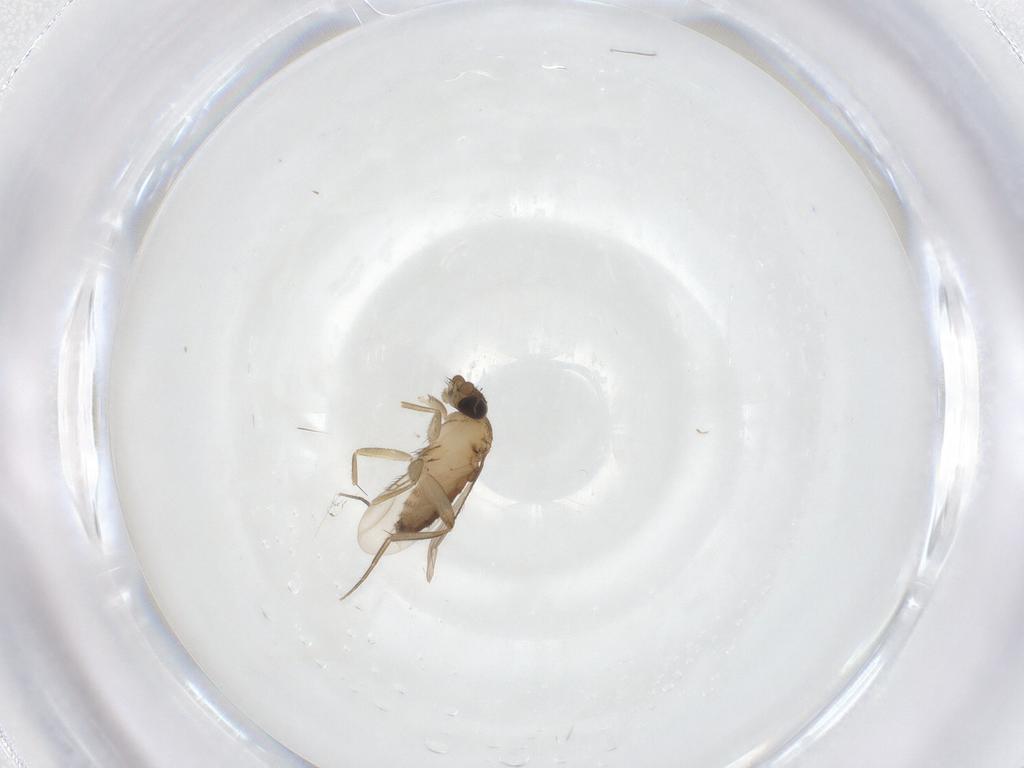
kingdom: Animalia
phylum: Arthropoda
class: Insecta
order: Diptera
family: Phoridae
